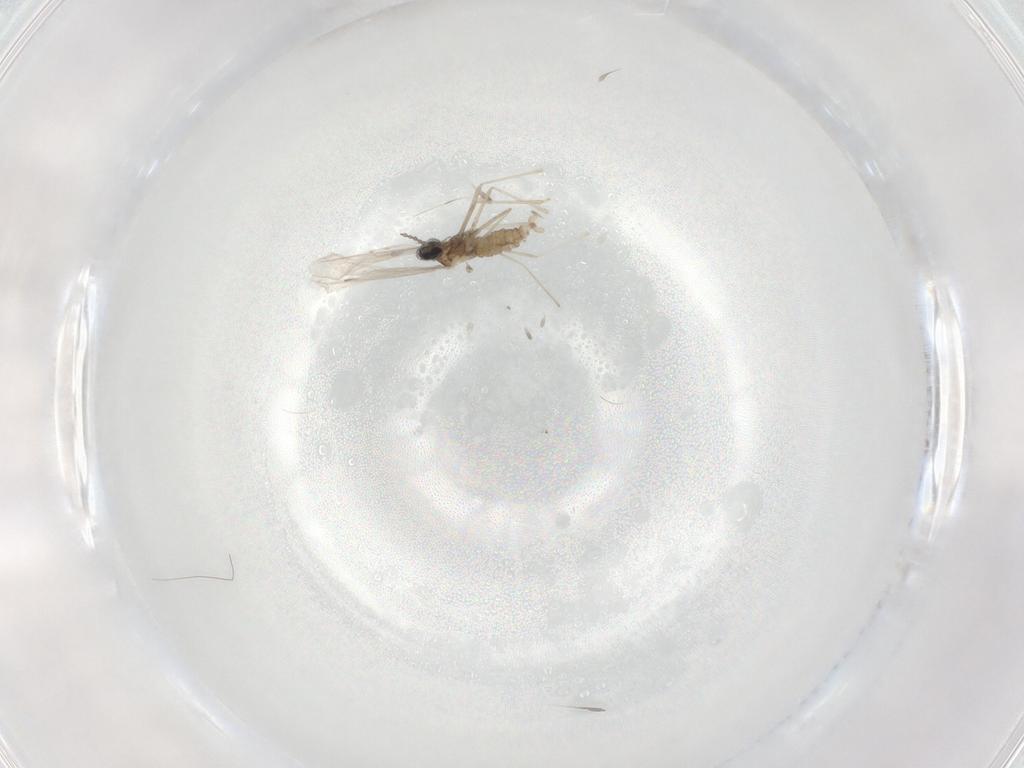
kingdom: Animalia
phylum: Arthropoda
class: Insecta
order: Diptera
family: Cecidomyiidae
